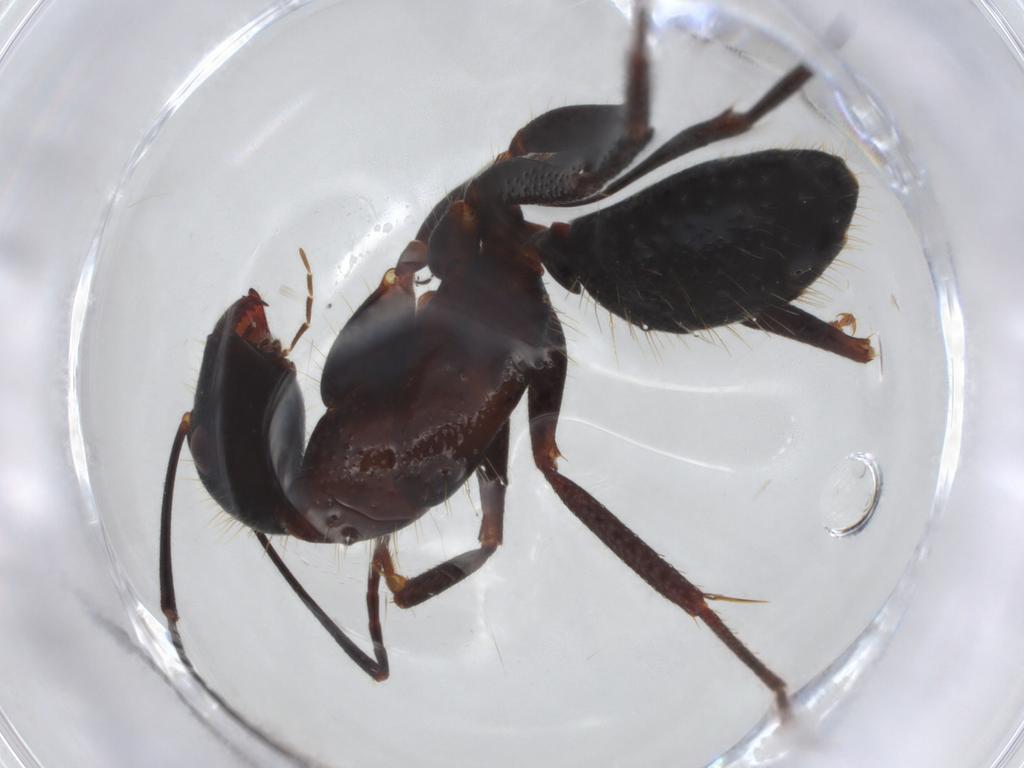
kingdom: Animalia
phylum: Arthropoda
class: Insecta
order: Hymenoptera
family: Formicidae
